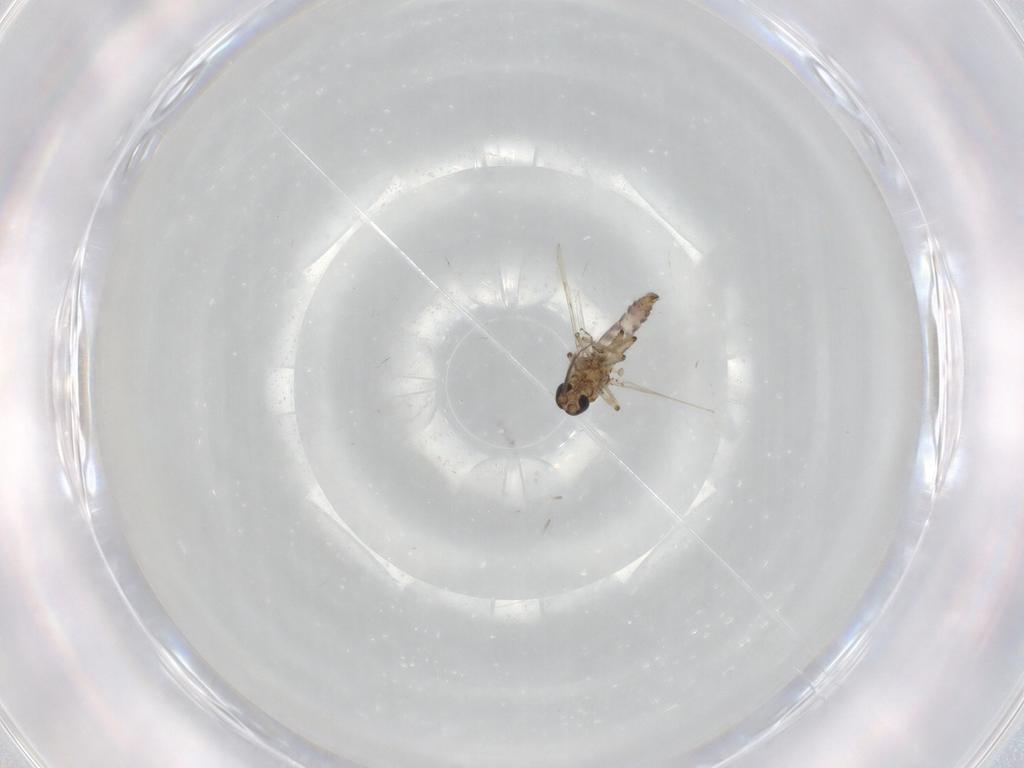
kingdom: Animalia
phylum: Arthropoda
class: Insecta
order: Diptera
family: Ceratopogonidae
